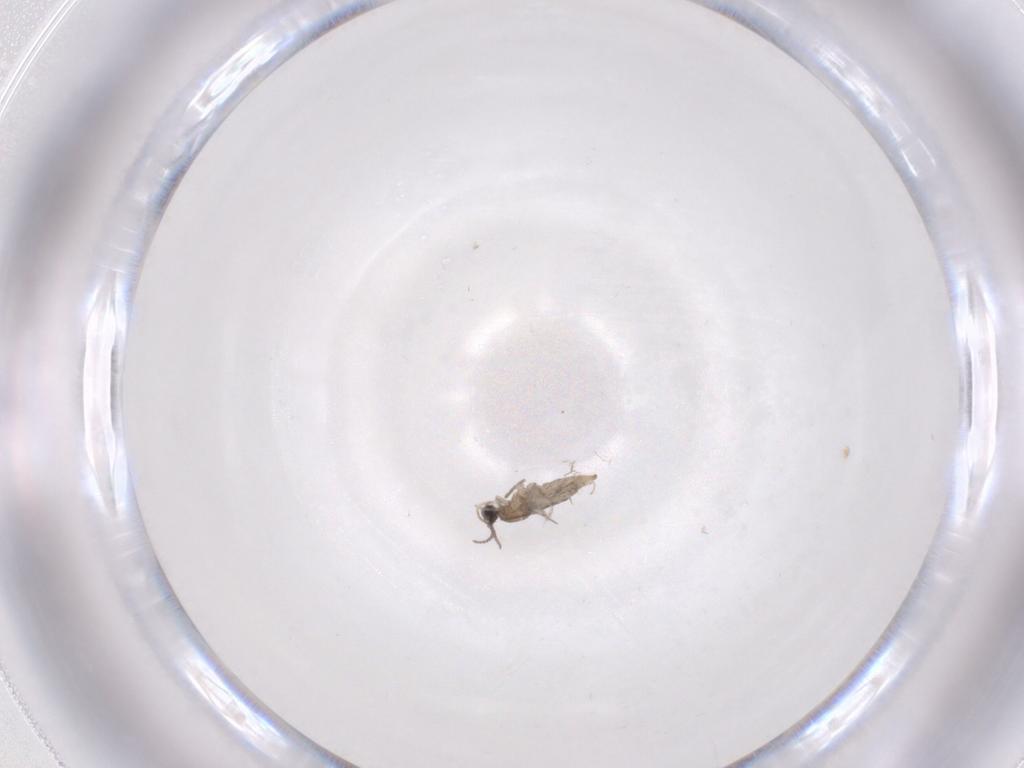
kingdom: Animalia
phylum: Arthropoda
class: Insecta
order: Diptera
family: Cecidomyiidae
